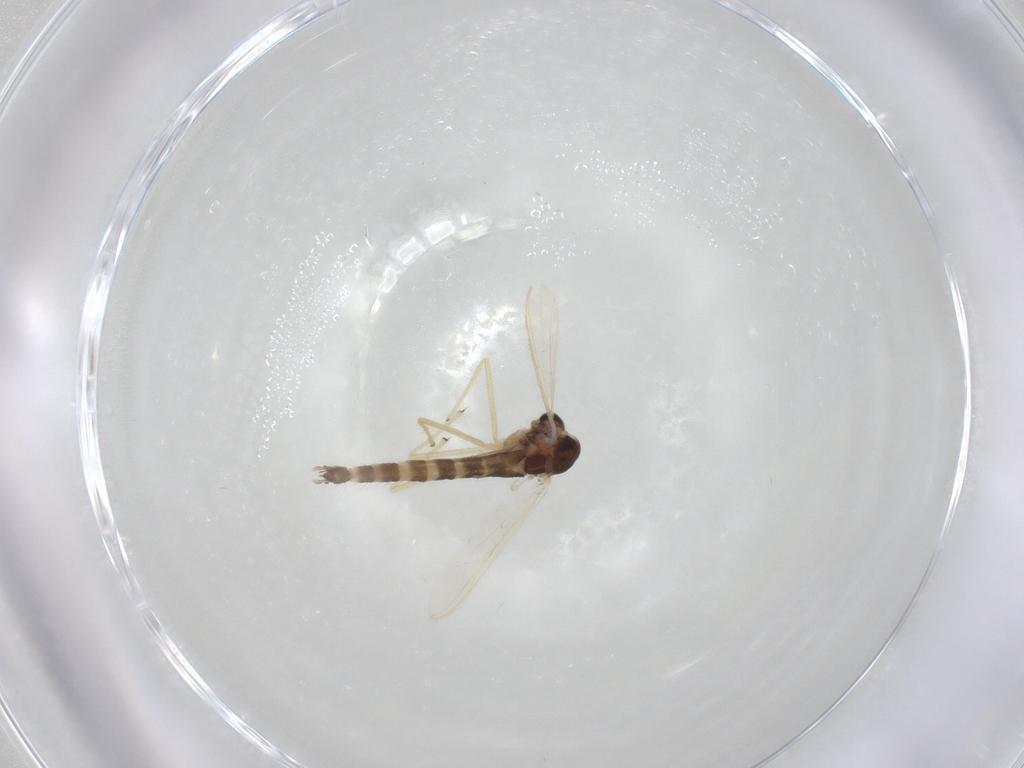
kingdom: Animalia
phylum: Arthropoda
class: Insecta
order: Diptera
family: Chironomidae
